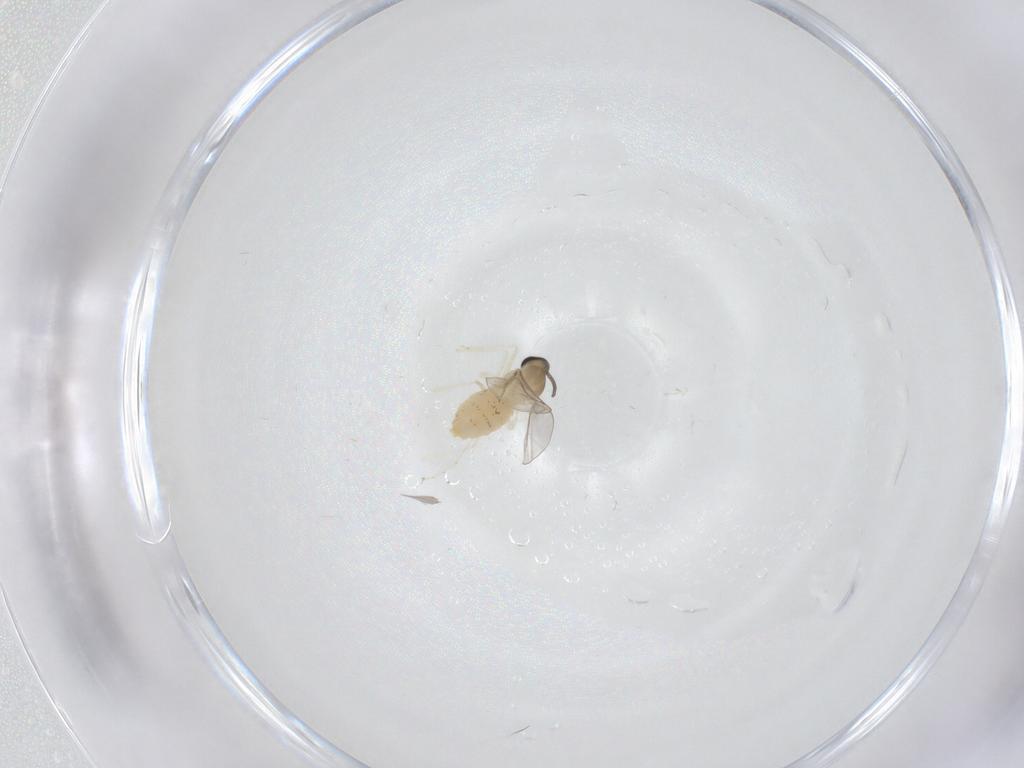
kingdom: Animalia
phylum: Arthropoda
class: Insecta
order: Diptera
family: Cecidomyiidae
